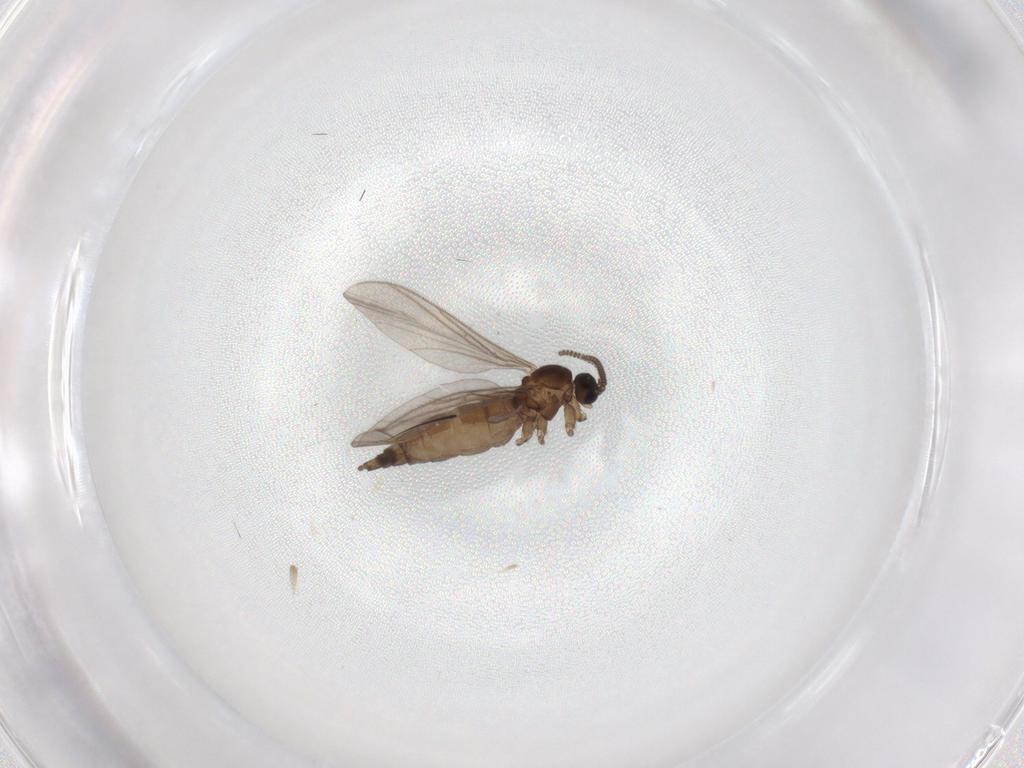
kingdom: Animalia
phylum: Arthropoda
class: Insecta
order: Diptera
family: Sciaridae
